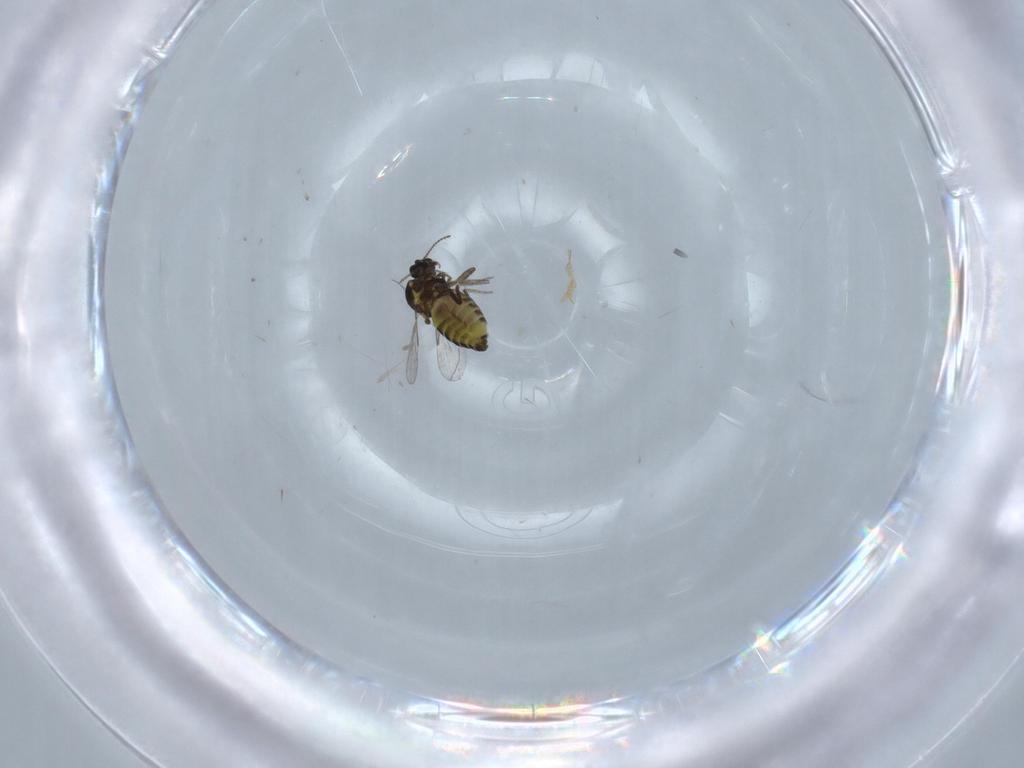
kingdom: Animalia
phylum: Arthropoda
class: Insecta
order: Diptera
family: Ceratopogonidae
